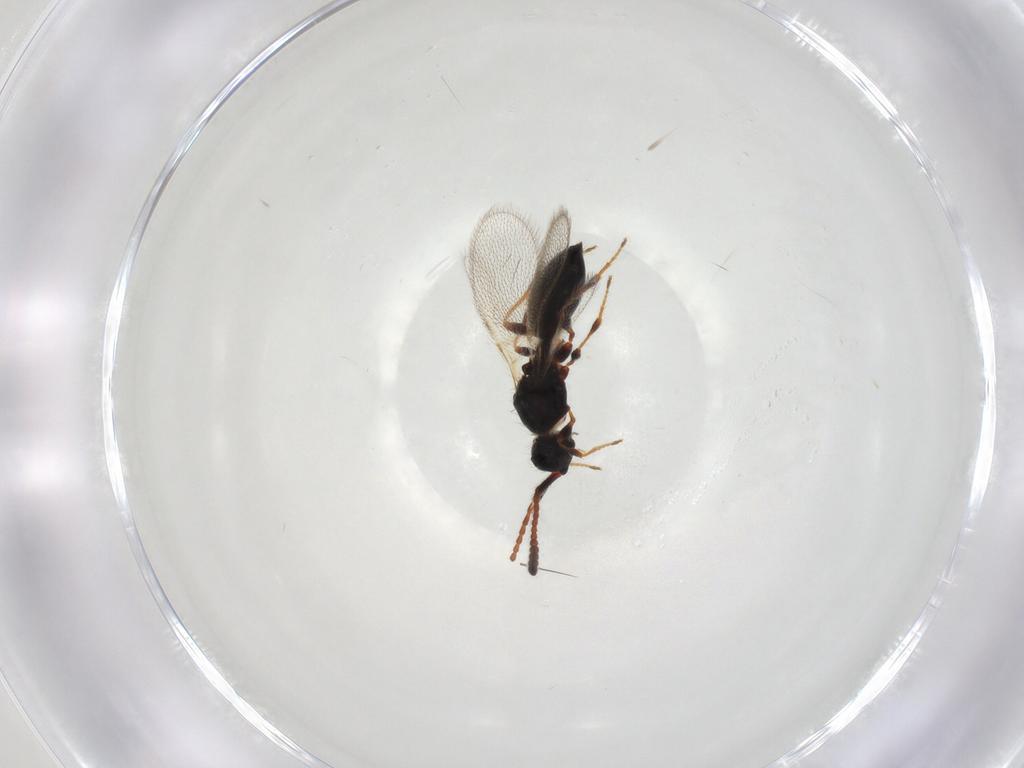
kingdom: Animalia
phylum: Arthropoda
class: Insecta
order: Hymenoptera
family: Diapriidae
